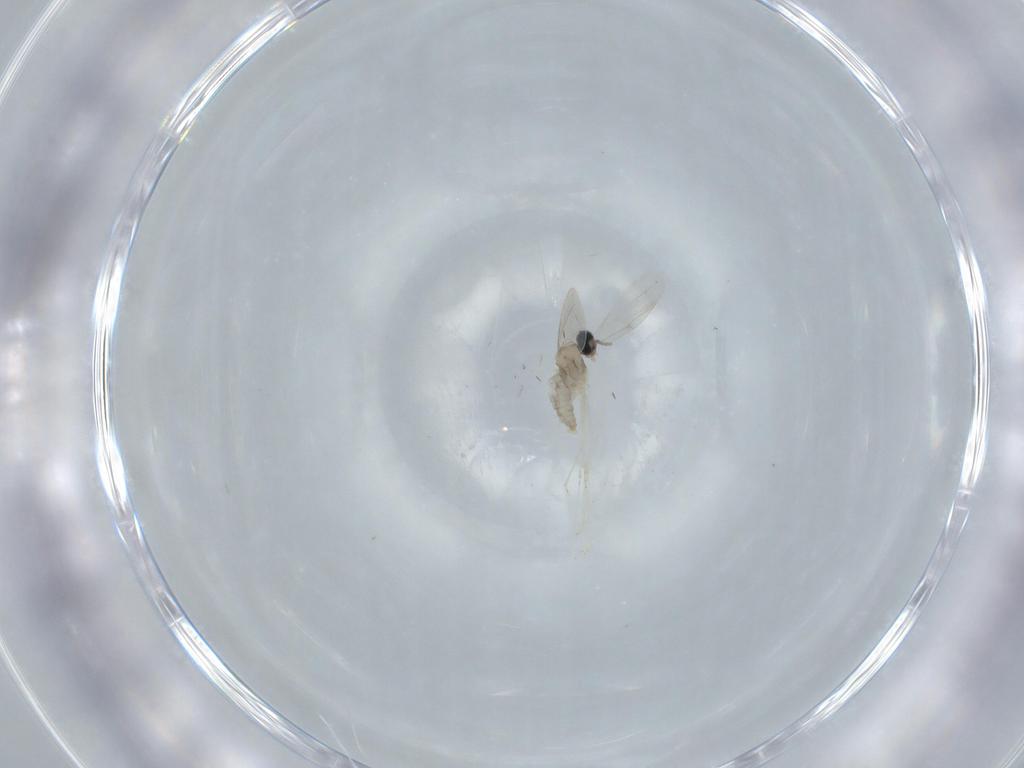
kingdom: Animalia
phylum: Arthropoda
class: Insecta
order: Diptera
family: Cecidomyiidae
